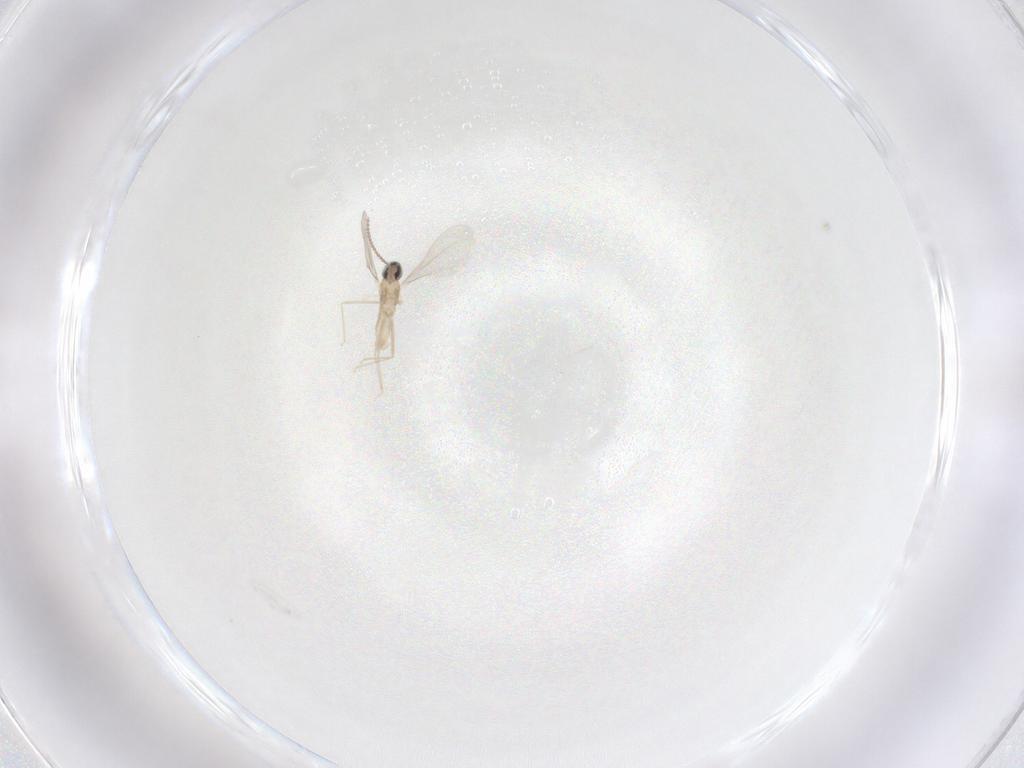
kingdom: Animalia
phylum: Arthropoda
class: Insecta
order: Diptera
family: Cecidomyiidae
